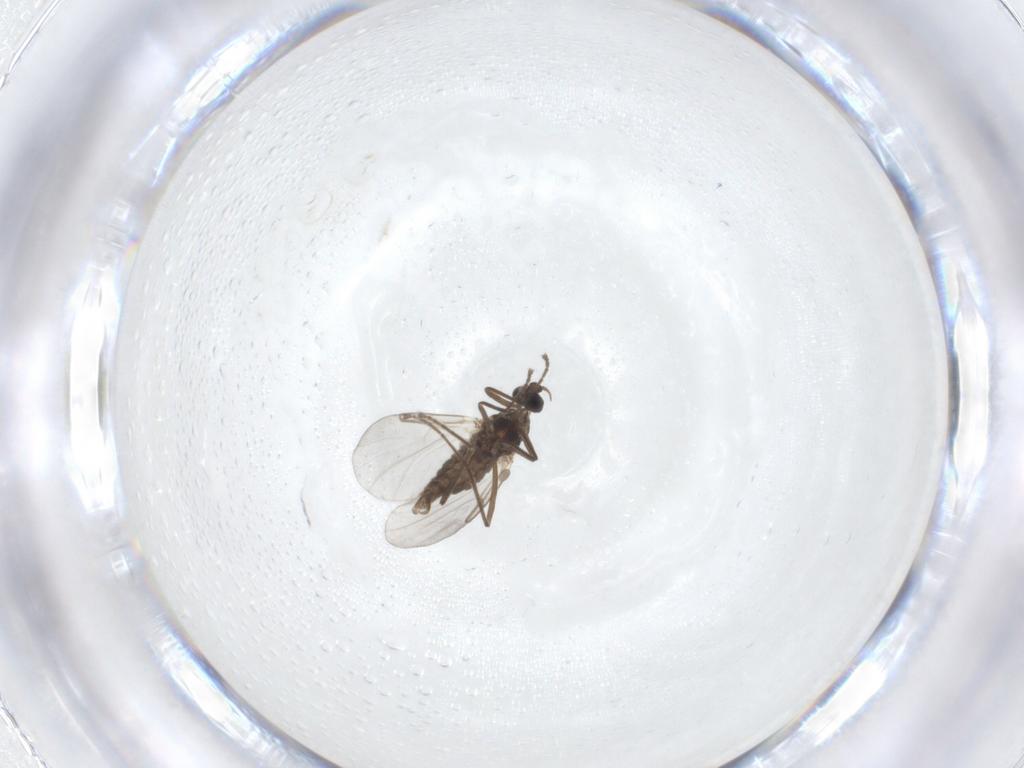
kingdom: Animalia
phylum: Arthropoda
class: Insecta
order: Diptera
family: Cecidomyiidae
